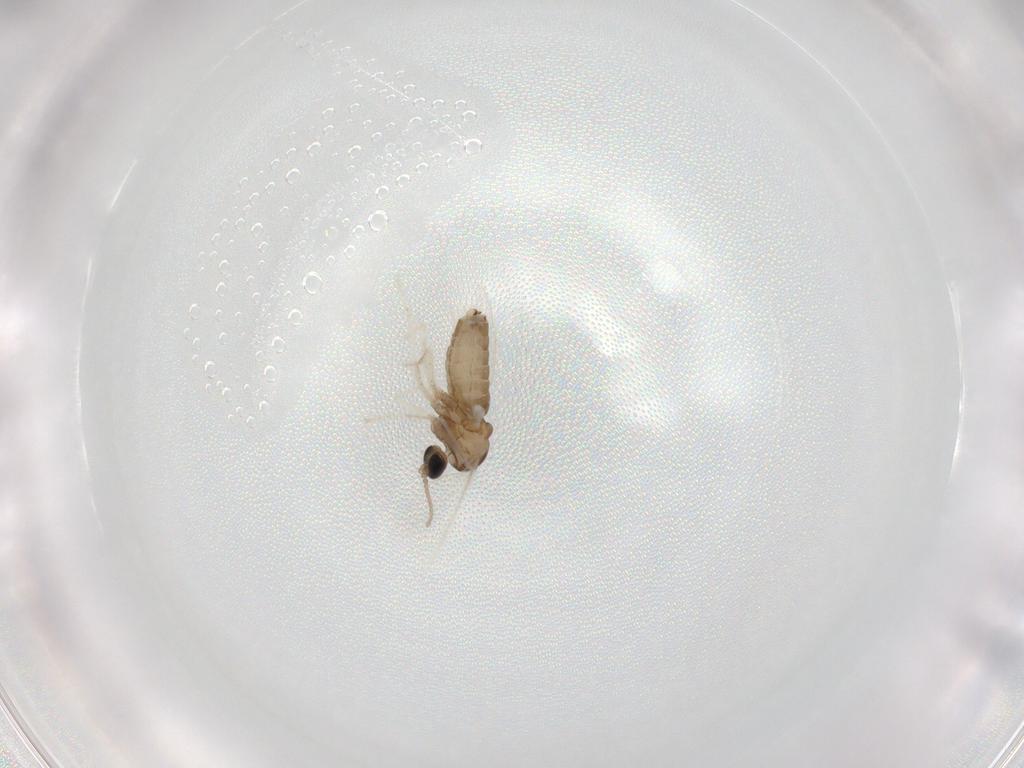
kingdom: Animalia
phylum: Arthropoda
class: Insecta
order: Diptera
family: Cecidomyiidae
